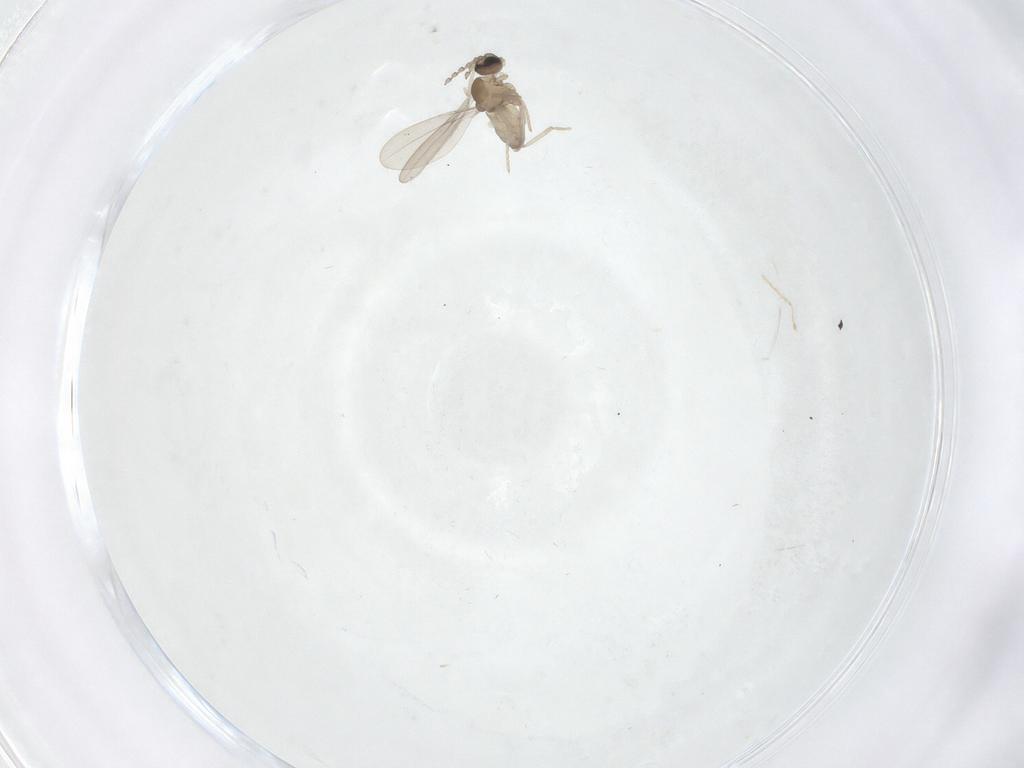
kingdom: Animalia
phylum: Arthropoda
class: Insecta
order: Diptera
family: Cecidomyiidae
